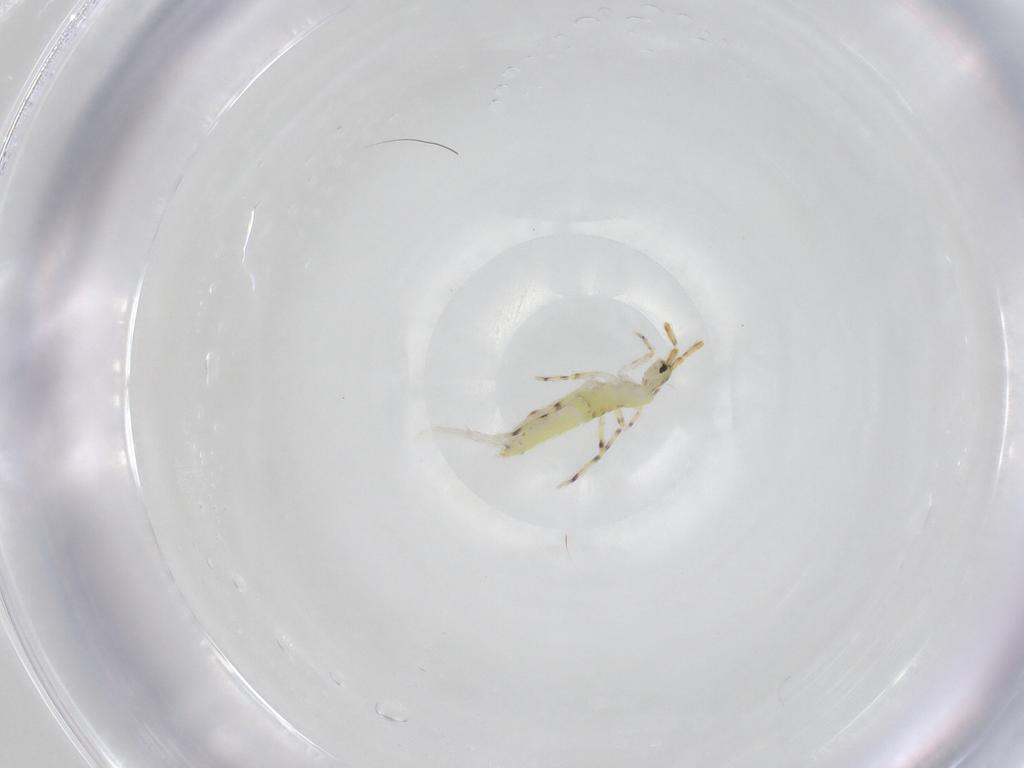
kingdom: Animalia
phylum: Arthropoda
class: Collembola
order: Entomobryomorpha
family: Entomobryidae
